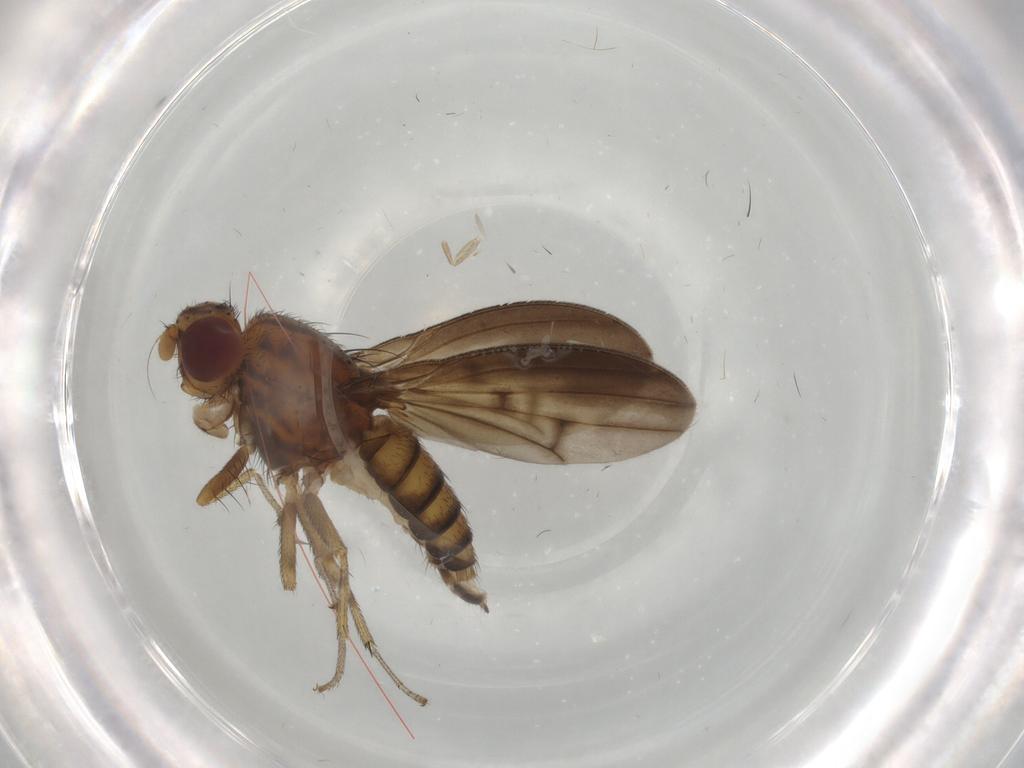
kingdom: Animalia
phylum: Arthropoda
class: Insecta
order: Diptera
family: Lauxaniidae
